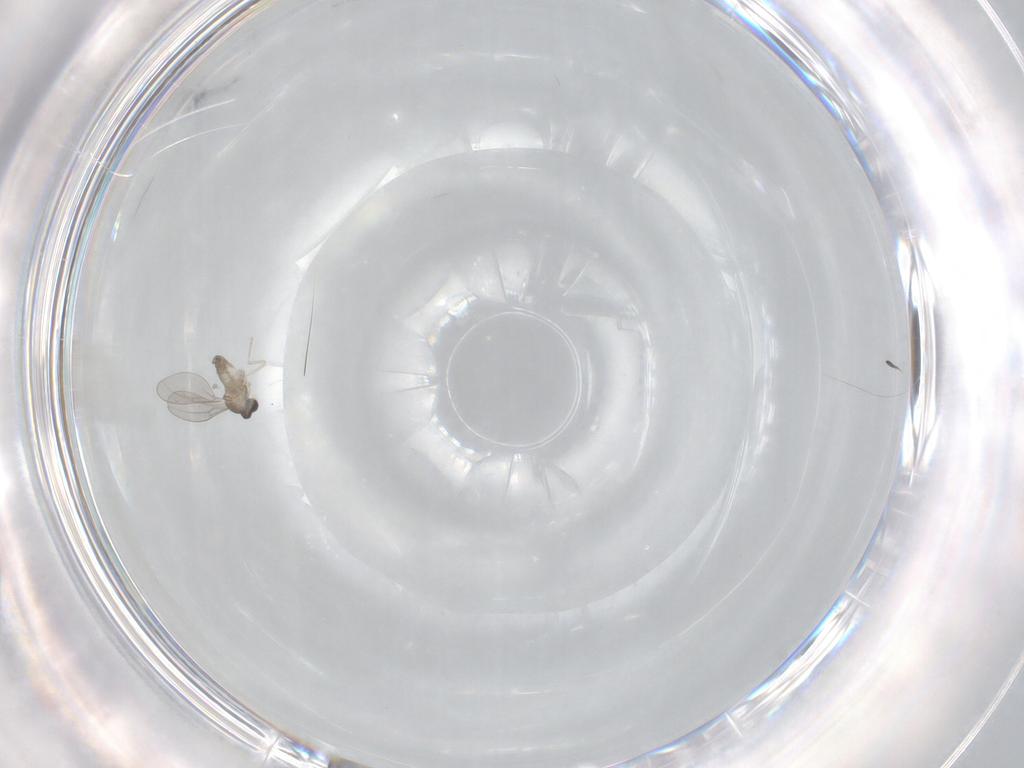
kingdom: Animalia
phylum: Arthropoda
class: Insecta
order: Diptera
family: Cecidomyiidae
